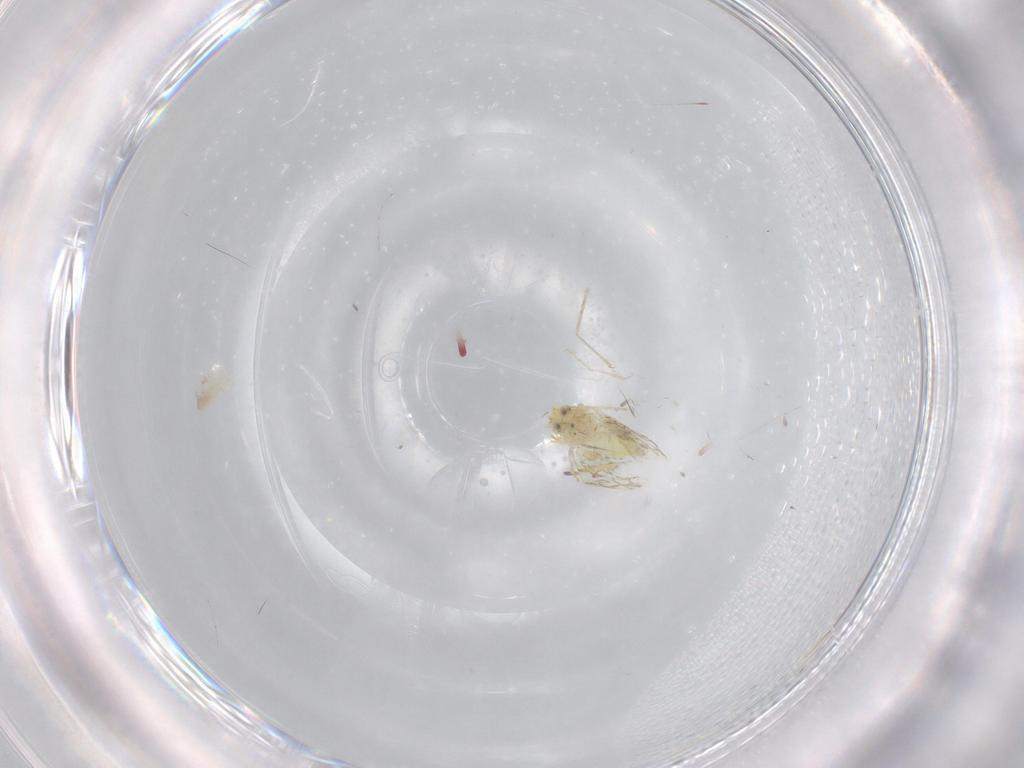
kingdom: Animalia
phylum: Arthropoda
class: Insecta
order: Hemiptera
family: Aleyrodidae
